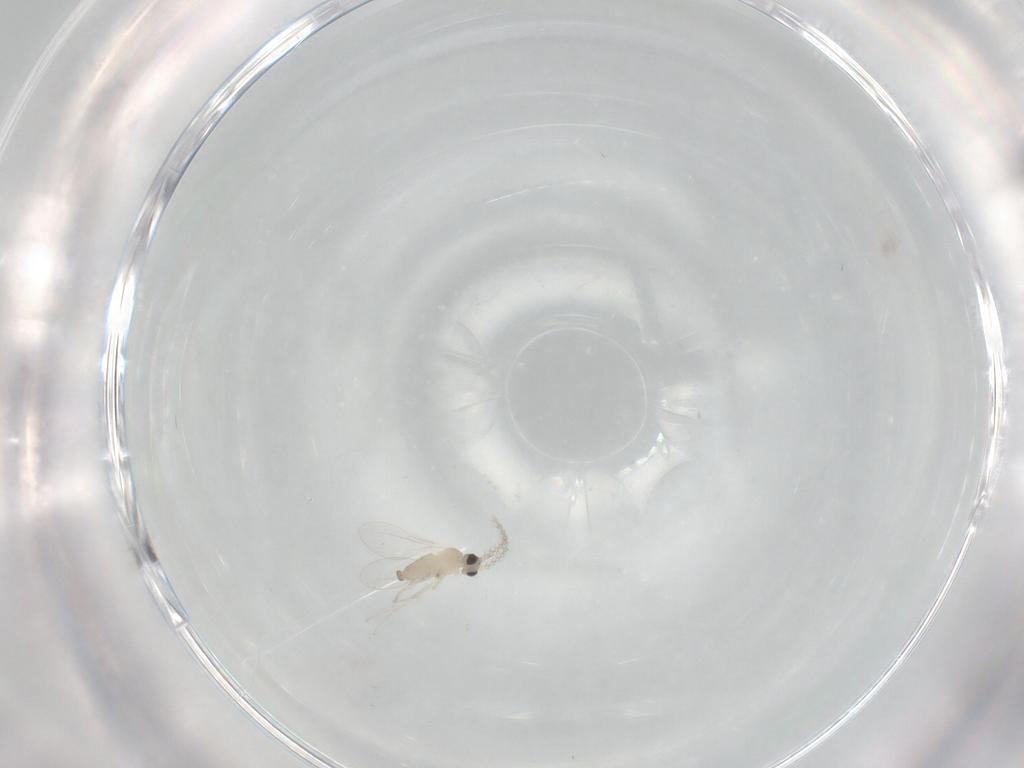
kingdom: Animalia
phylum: Arthropoda
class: Insecta
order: Diptera
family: Cecidomyiidae
